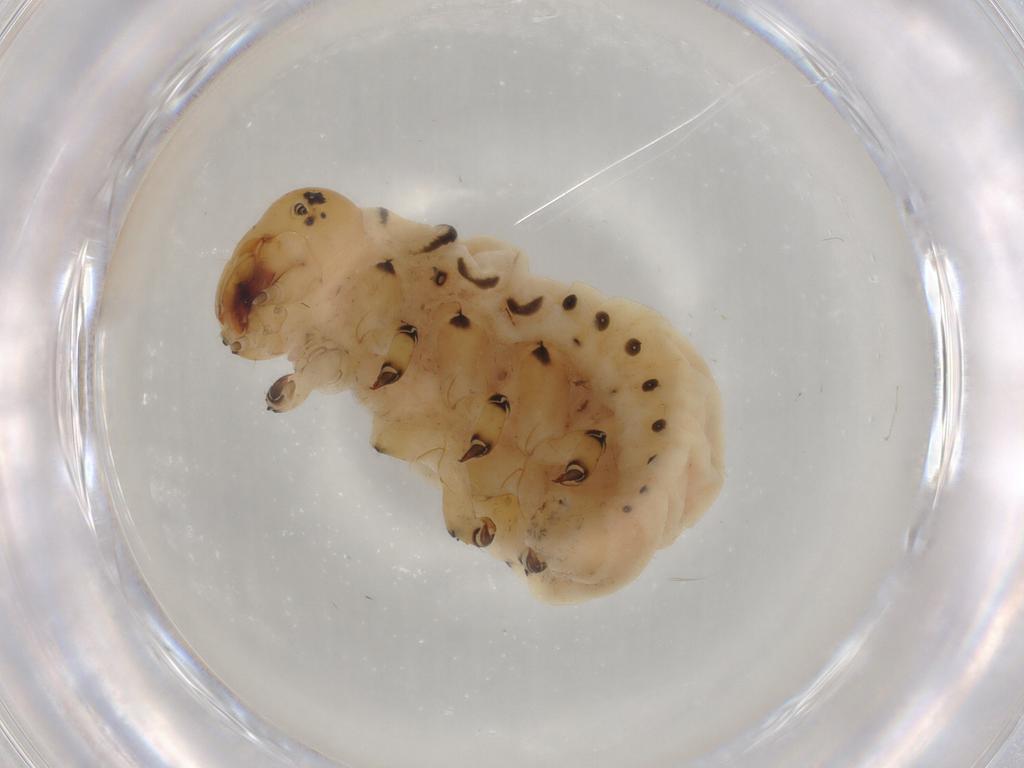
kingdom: Animalia
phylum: Arthropoda
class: Insecta
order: Coleoptera
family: Chrysomelidae
